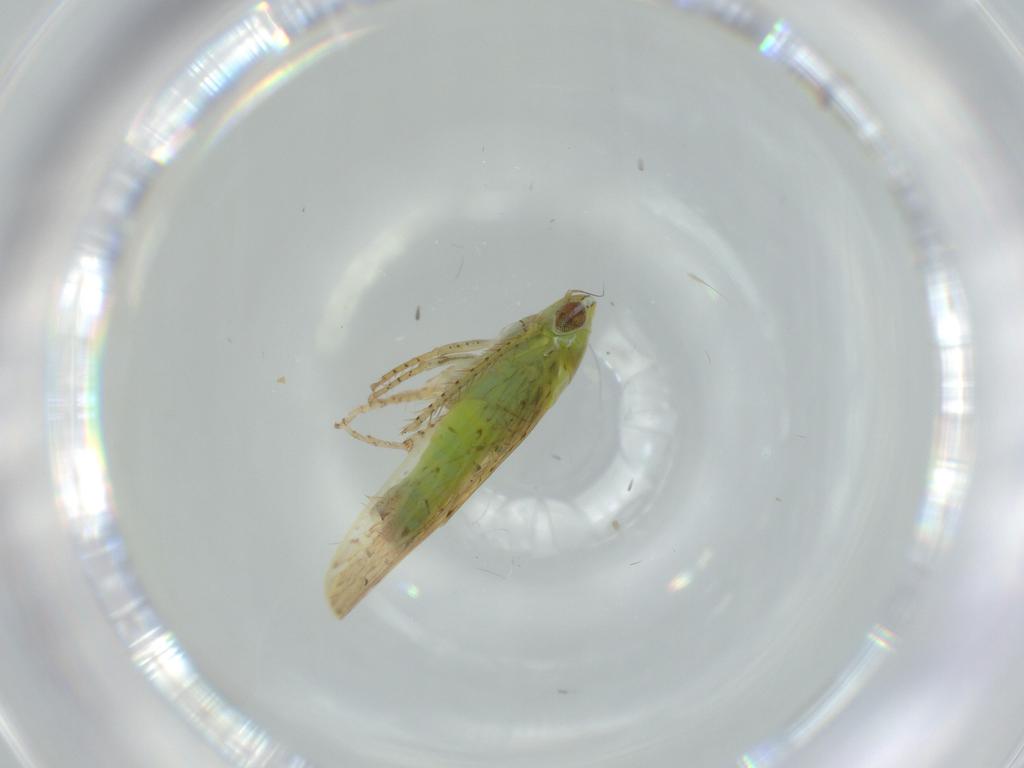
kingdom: Animalia
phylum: Arthropoda
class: Insecta
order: Hemiptera
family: Cicadellidae
